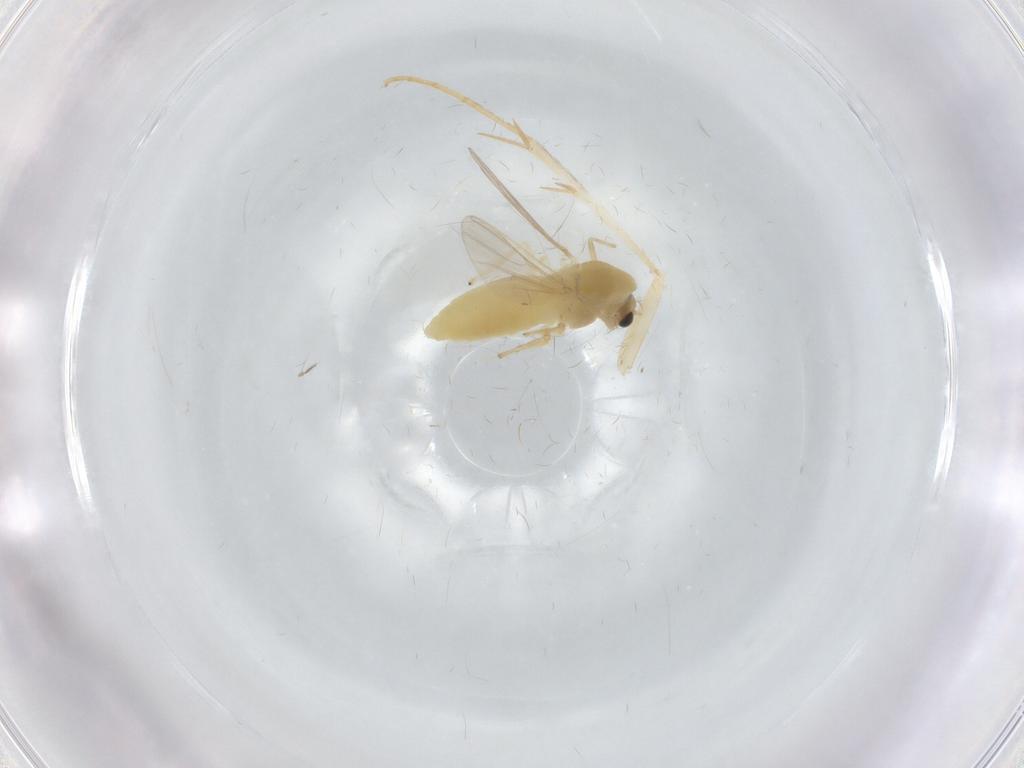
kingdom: Animalia
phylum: Arthropoda
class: Insecta
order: Diptera
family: Chironomidae
